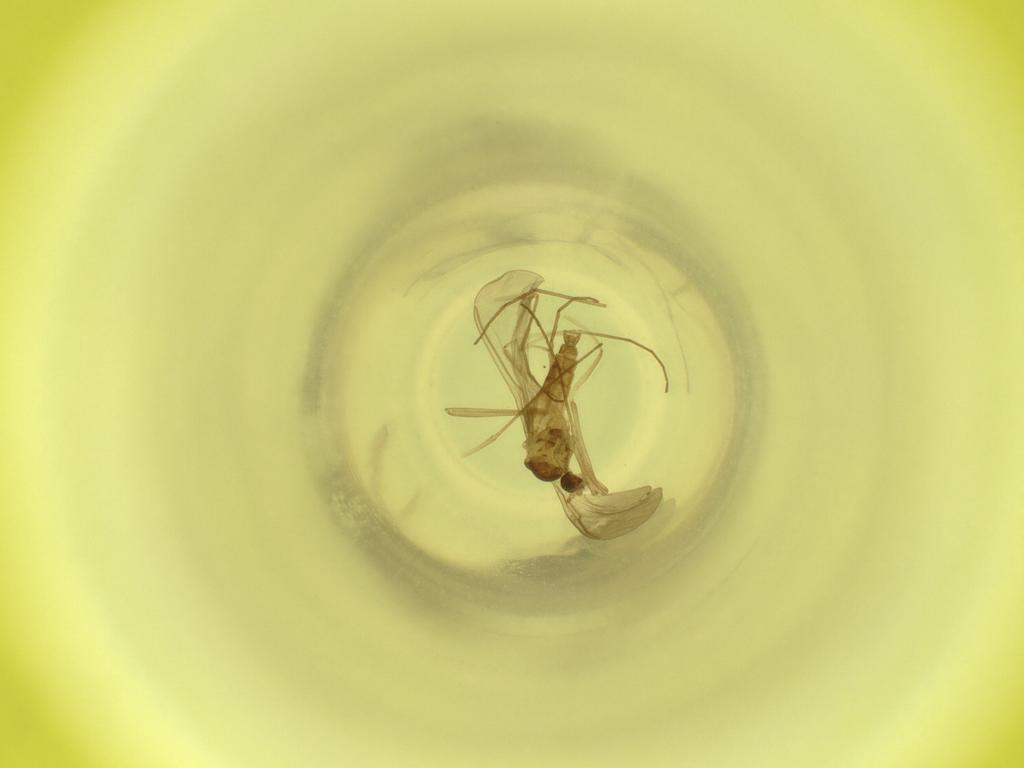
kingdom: Animalia
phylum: Arthropoda
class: Insecta
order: Diptera
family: Cecidomyiidae
